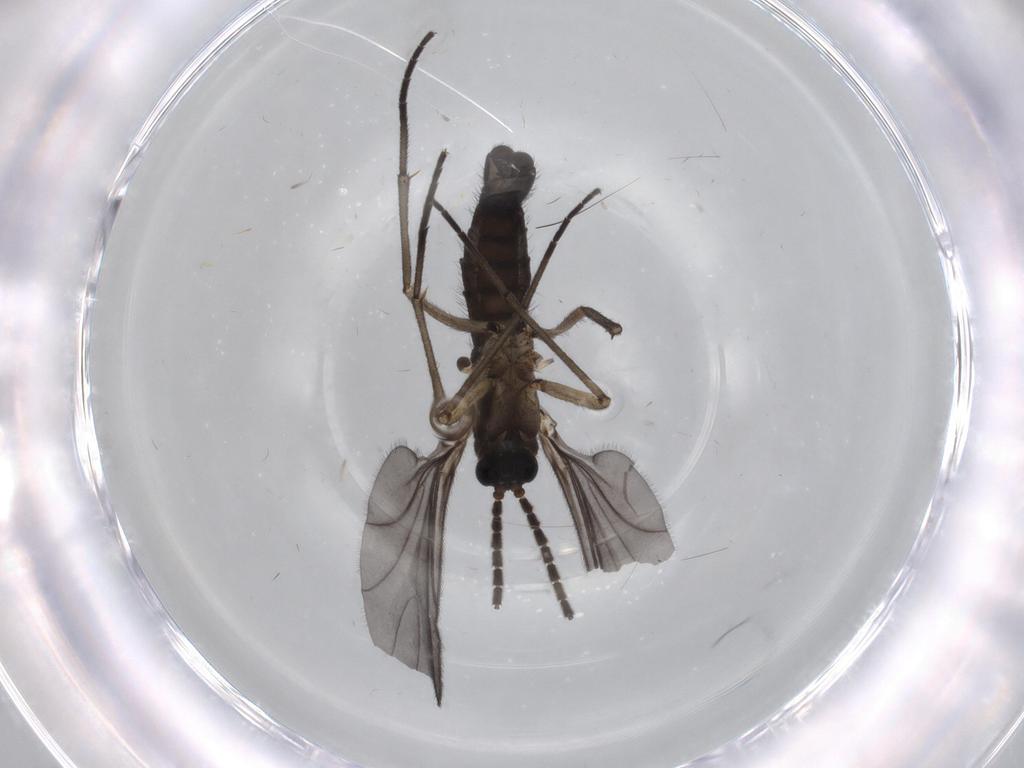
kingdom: Animalia
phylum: Arthropoda
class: Insecta
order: Diptera
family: Sciaridae
